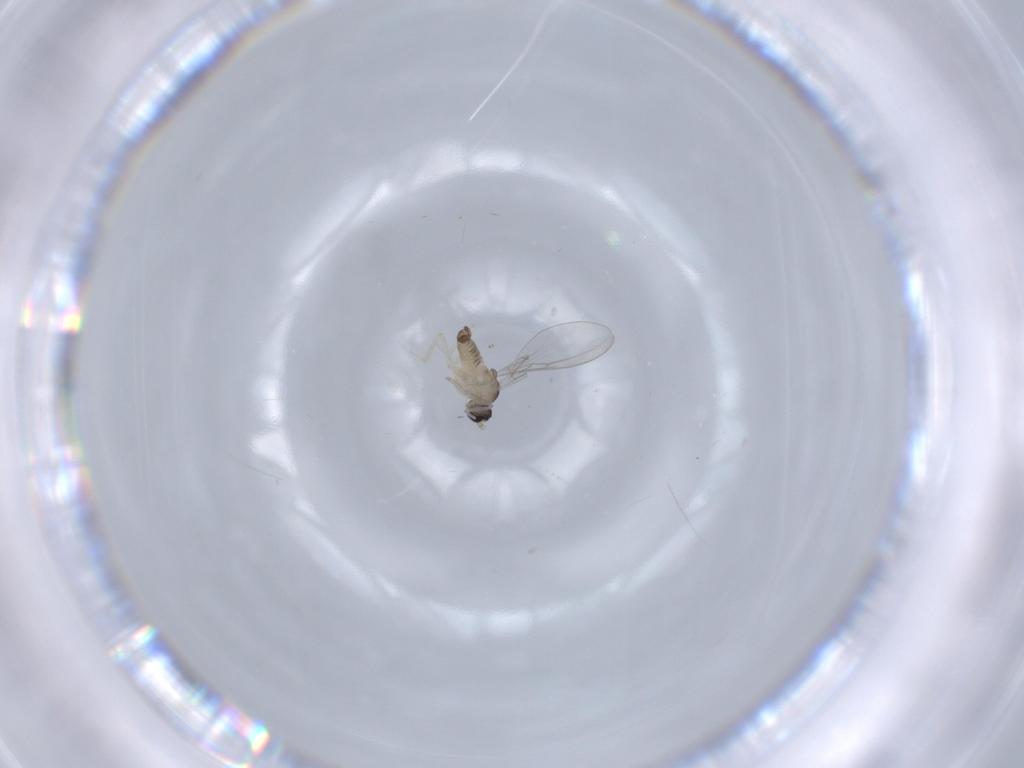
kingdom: Animalia
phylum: Arthropoda
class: Insecta
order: Diptera
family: Cecidomyiidae
